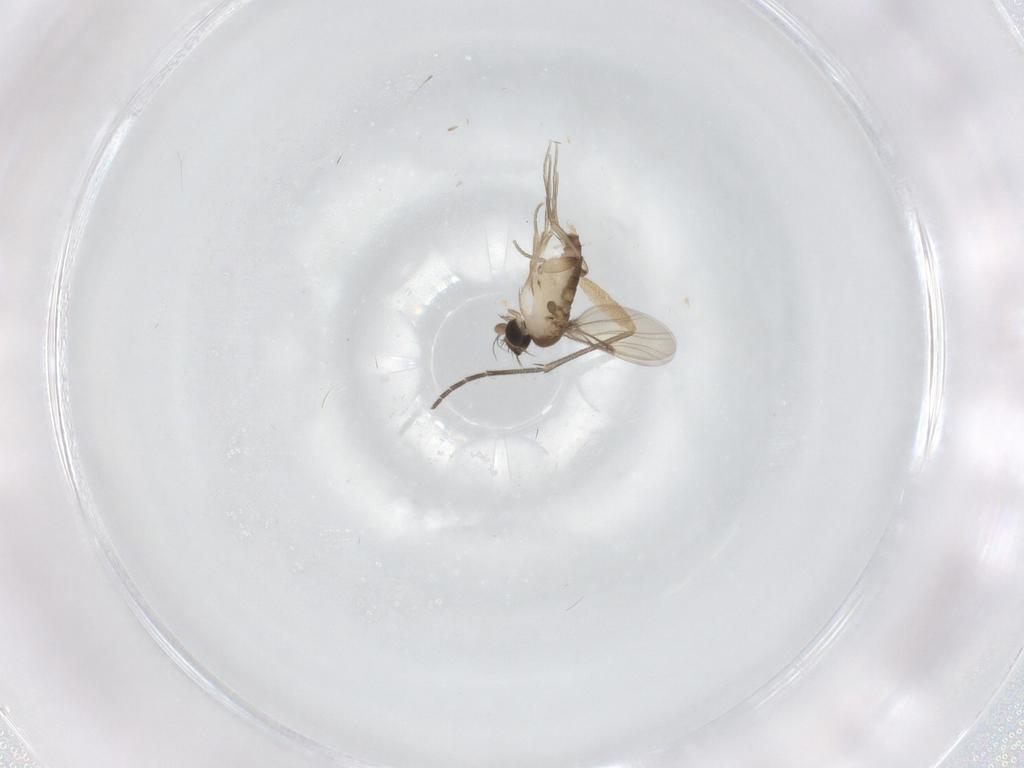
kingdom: Animalia
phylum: Arthropoda
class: Insecta
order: Diptera
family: Phoridae
